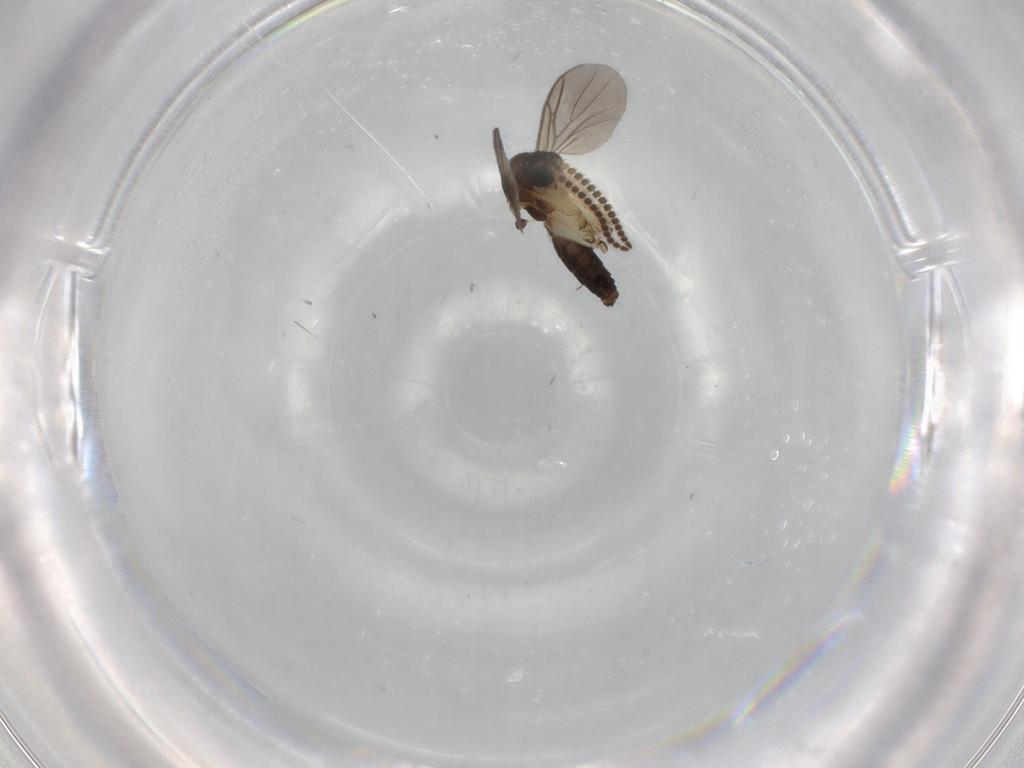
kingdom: Animalia
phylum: Arthropoda
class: Insecta
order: Diptera
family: Mycetophilidae
